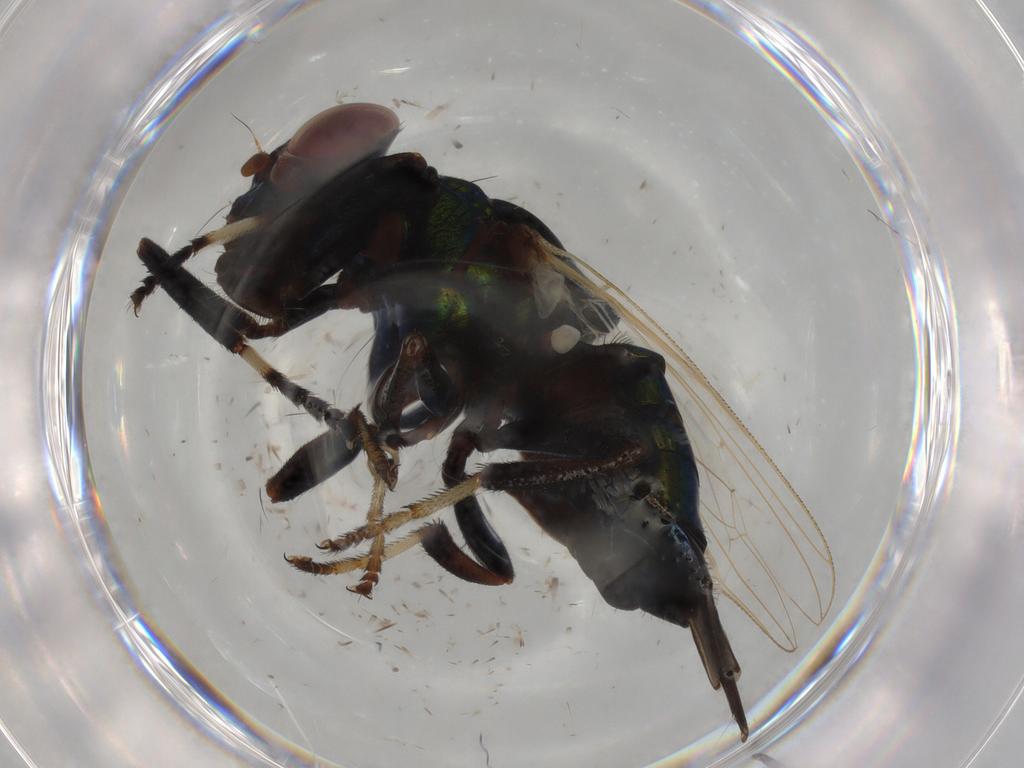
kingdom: Animalia
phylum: Arthropoda
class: Insecta
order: Diptera
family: Ulidiidae
